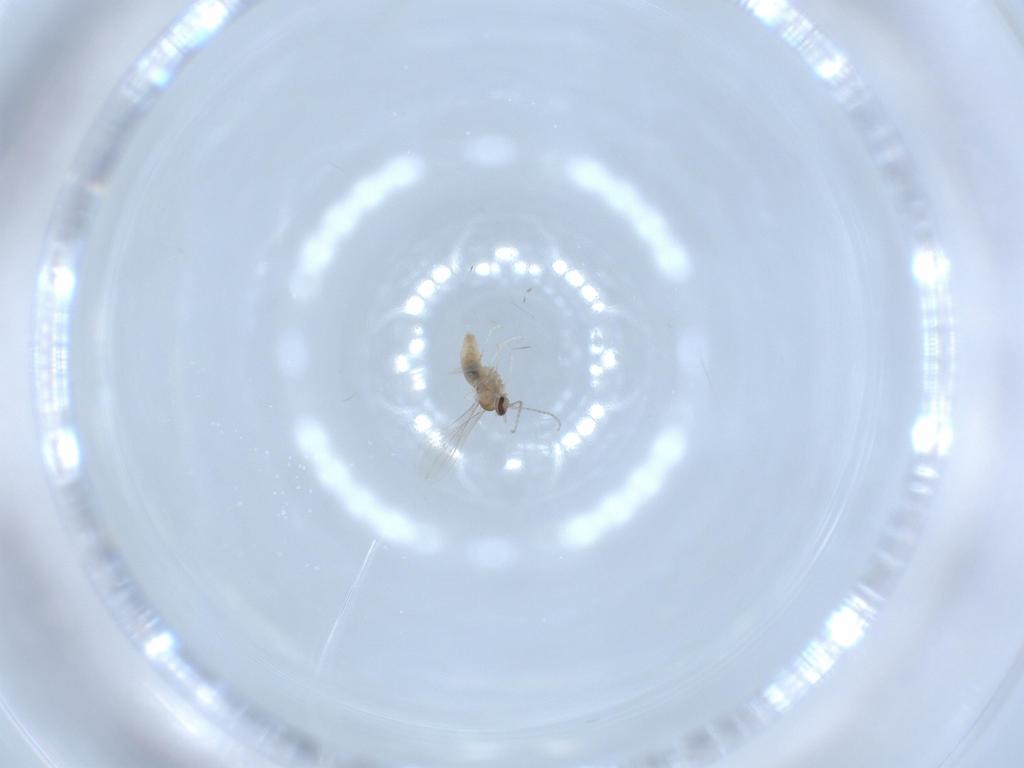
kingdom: Animalia
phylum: Arthropoda
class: Insecta
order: Diptera
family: Cecidomyiidae
